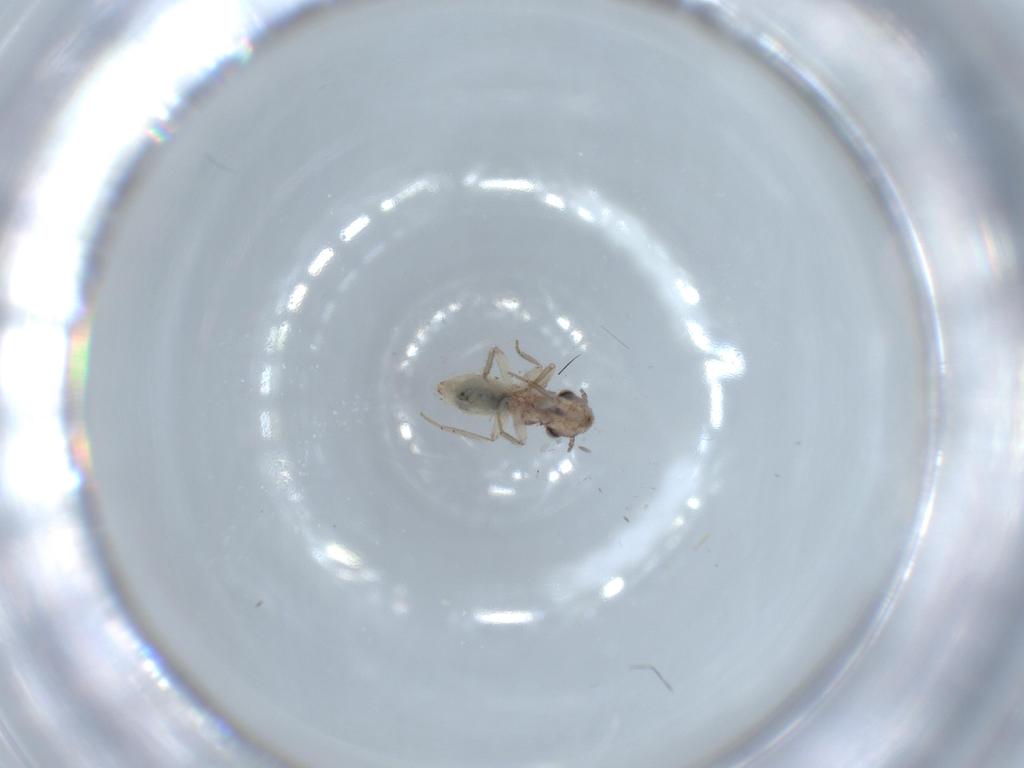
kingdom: Animalia
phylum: Arthropoda
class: Insecta
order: Psocodea
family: Lepidopsocidae
